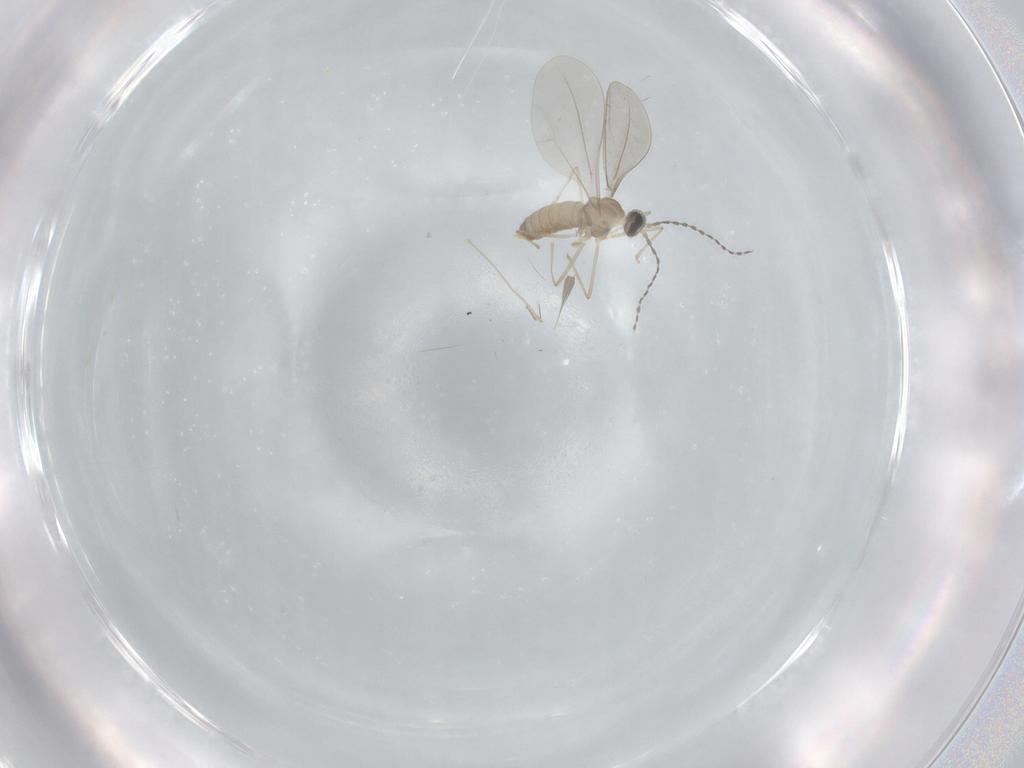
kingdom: Animalia
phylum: Arthropoda
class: Insecta
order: Diptera
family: Cecidomyiidae
